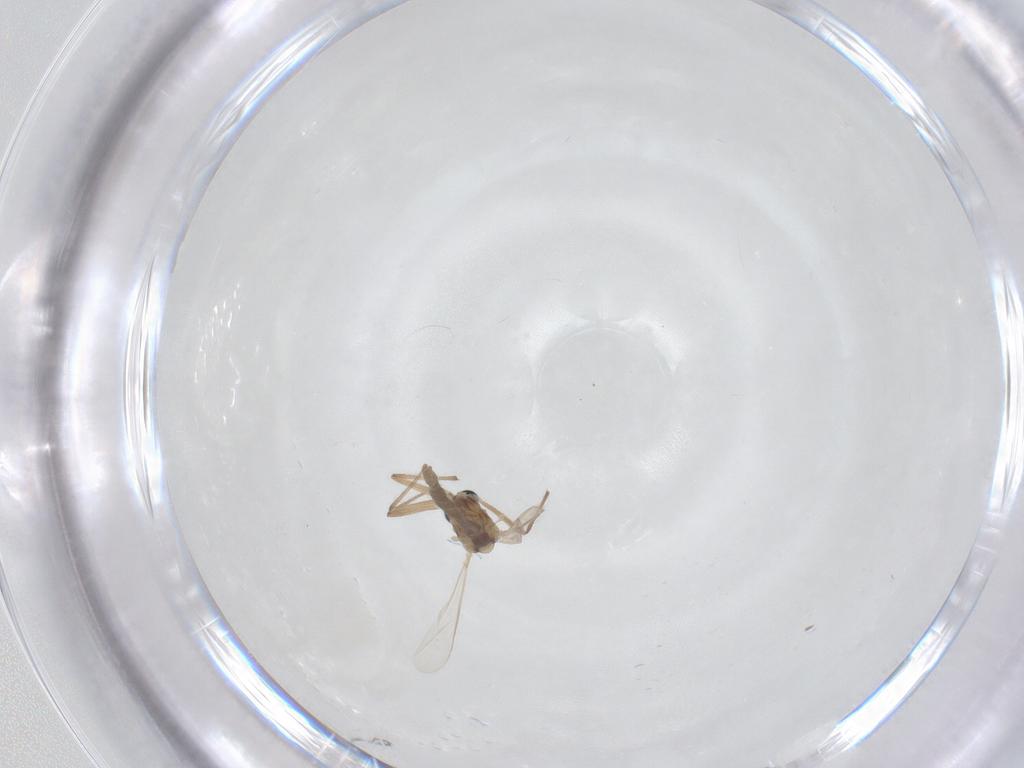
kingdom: Animalia
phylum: Arthropoda
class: Insecta
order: Diptera
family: Chironomidae
